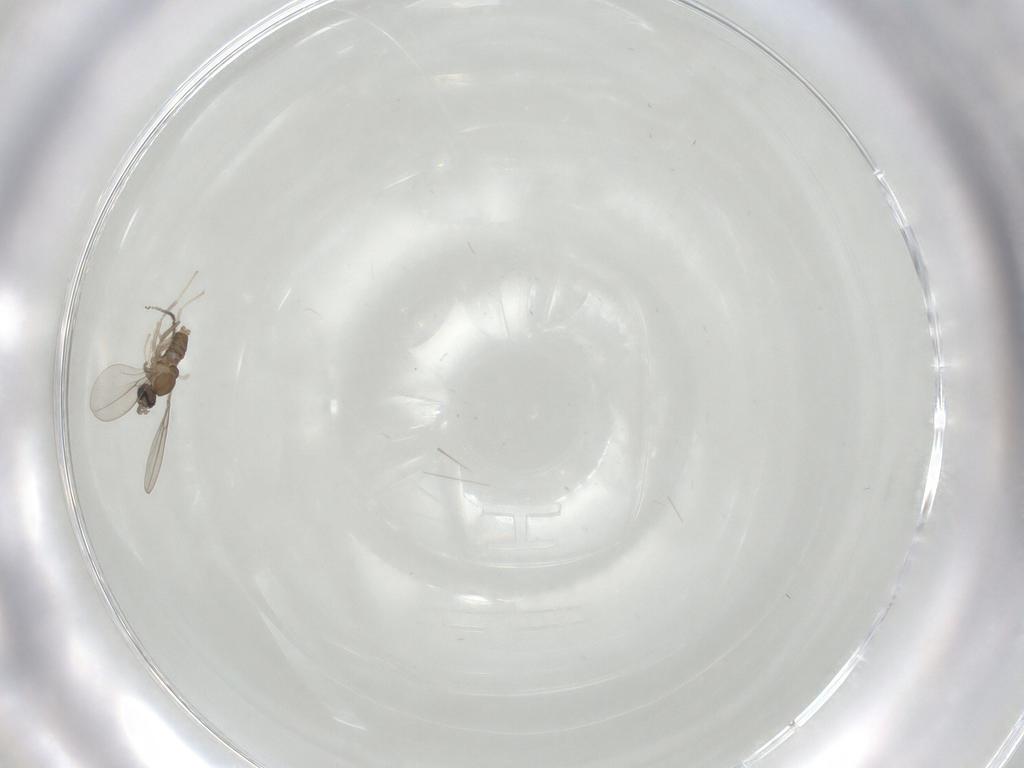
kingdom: Animalia
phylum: Arthropoda
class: Insecta
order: Diptera
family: Cecidomyiidae
